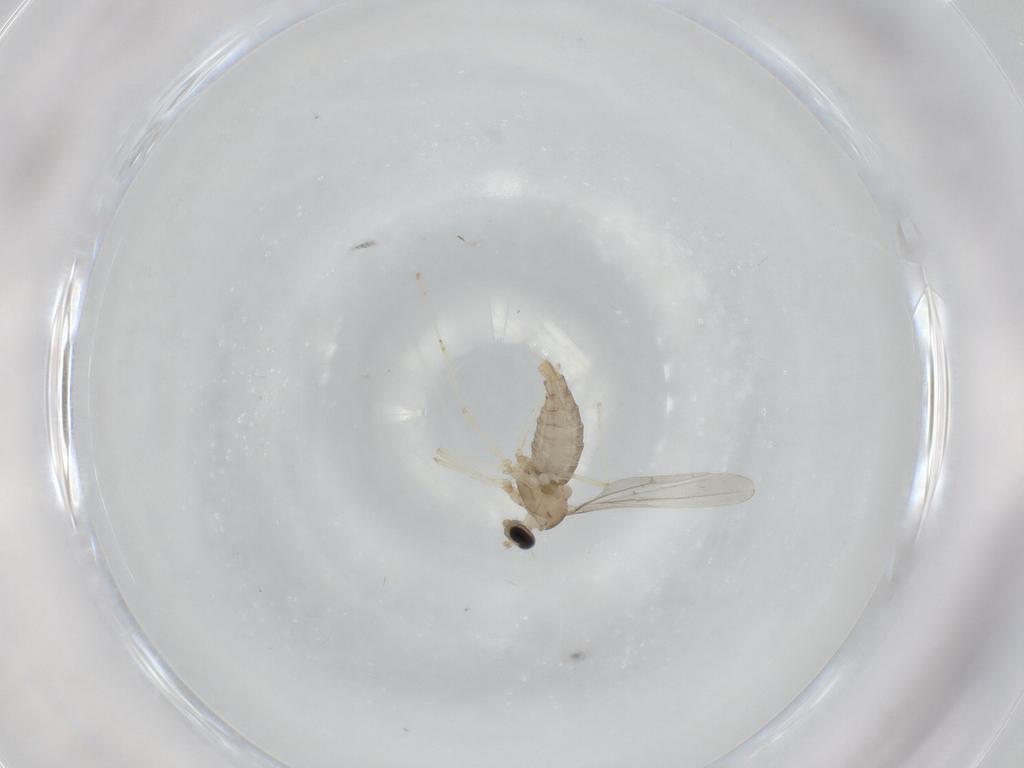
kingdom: Animalia
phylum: Arthropoda
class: Insecta
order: Diptera
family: Cecidomyiidae
